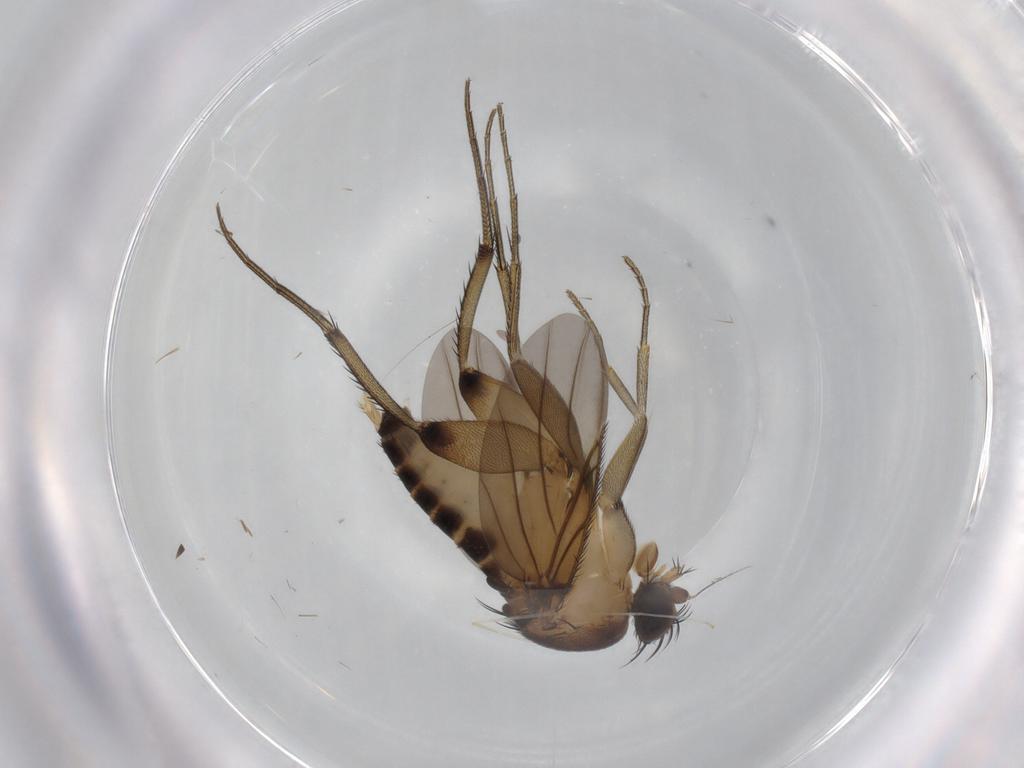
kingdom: Animalia
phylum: Arthropoda
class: Insecta
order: Diptera
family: Phoridae
